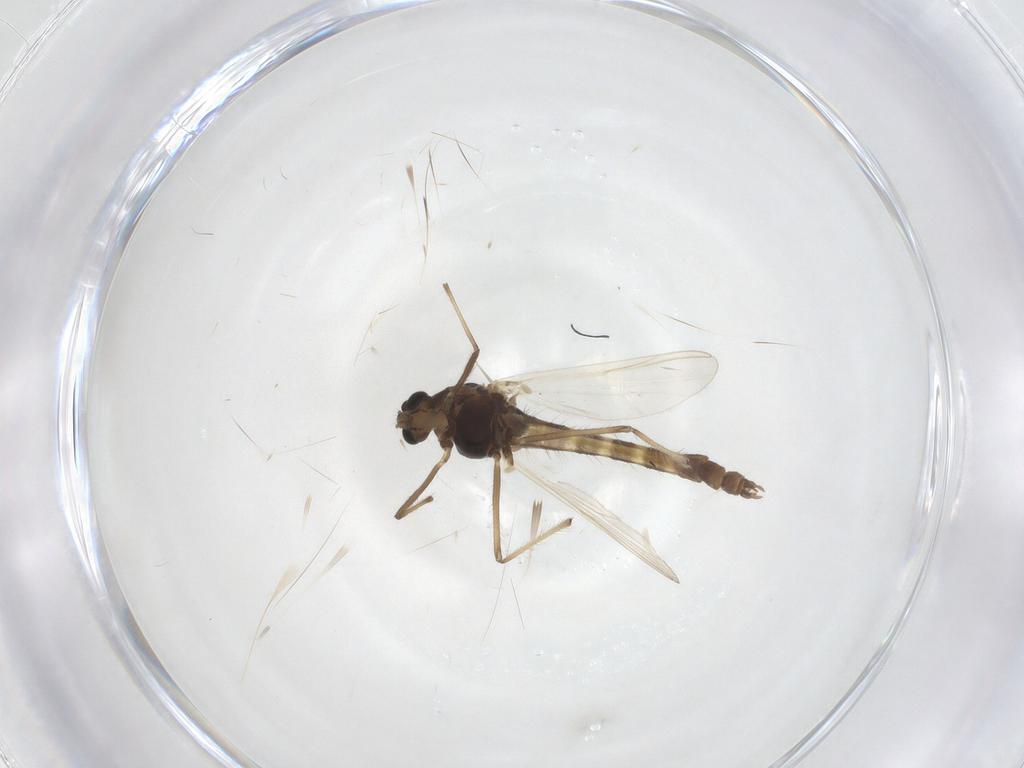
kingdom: Animalia
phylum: Arthropoda
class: Insecta
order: Diptera
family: Chironomidae
